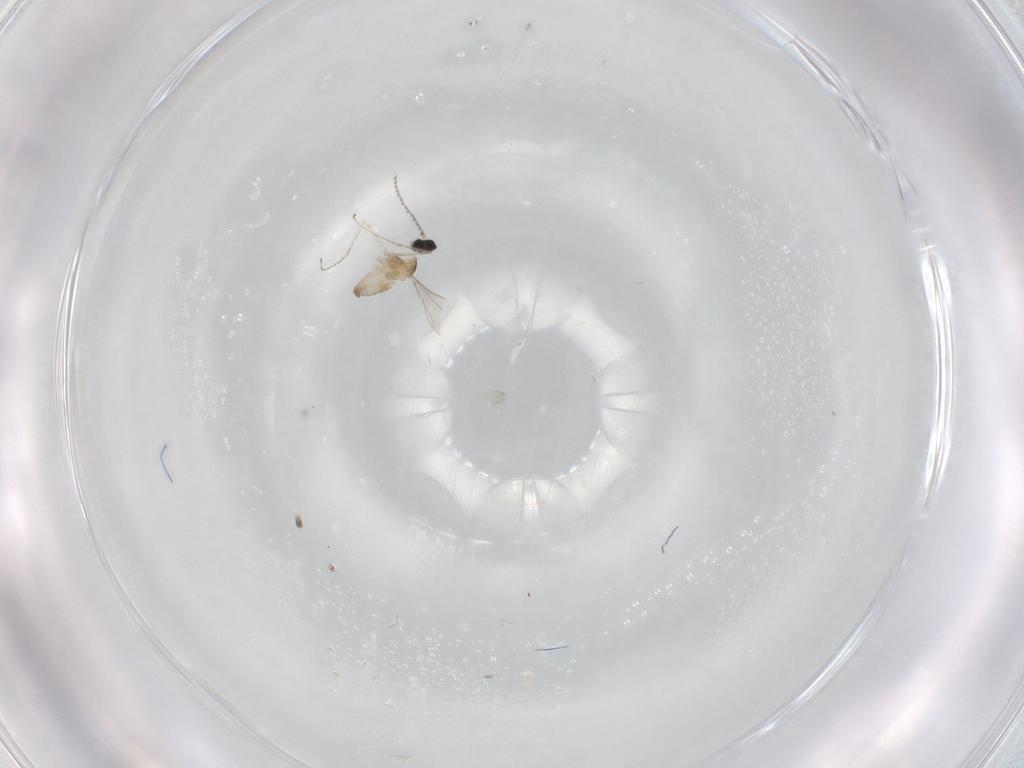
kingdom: Animalia
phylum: Arthropoda
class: Insecta
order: Diptera
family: Cecidomyiidae
